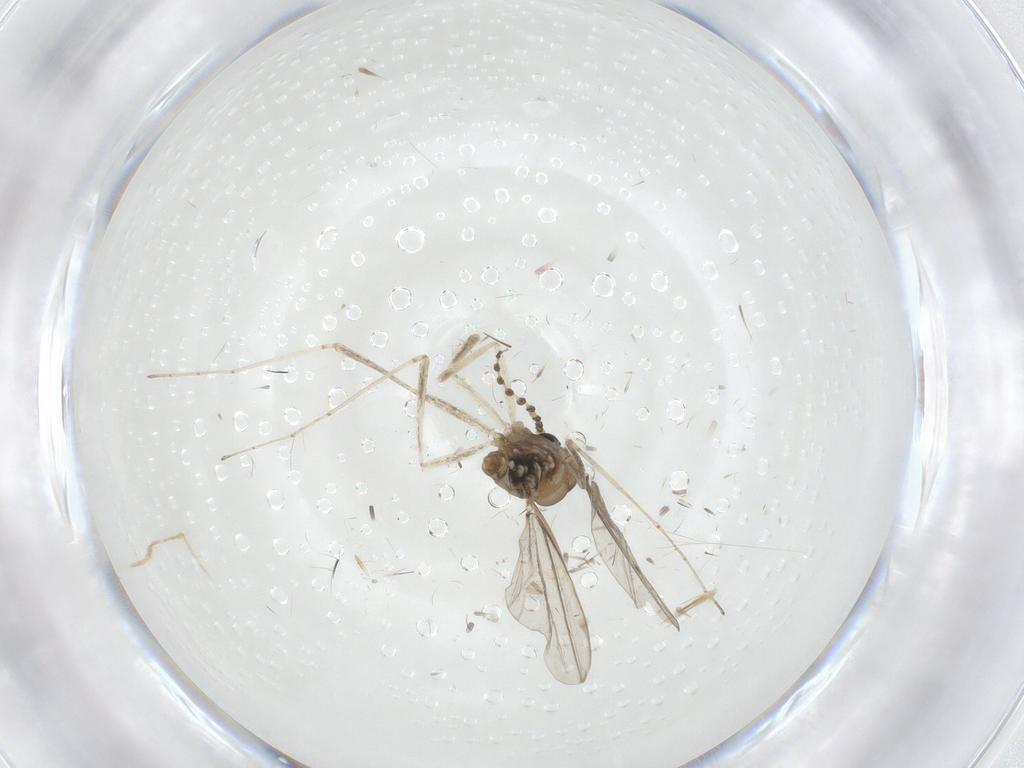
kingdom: Animalia
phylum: Arthropoda
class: Insecta
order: Diptera
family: Cecidomyiidae
